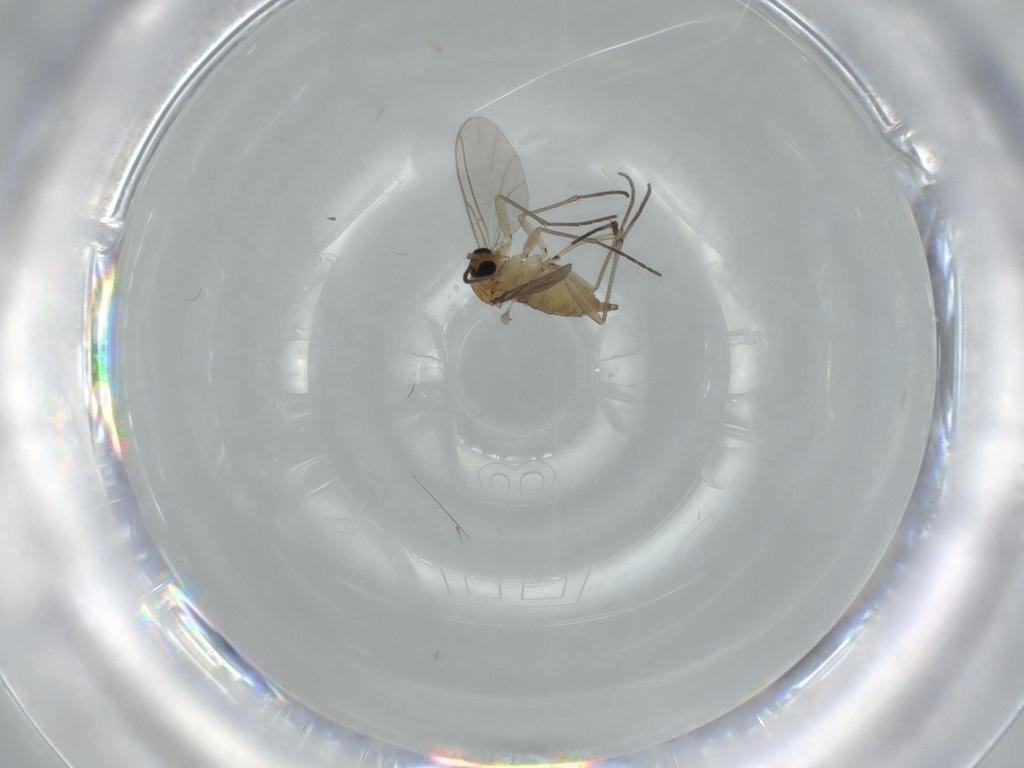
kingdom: Animalia
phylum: Arthropoda
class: Insecta
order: Diptera
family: Sciaridae
